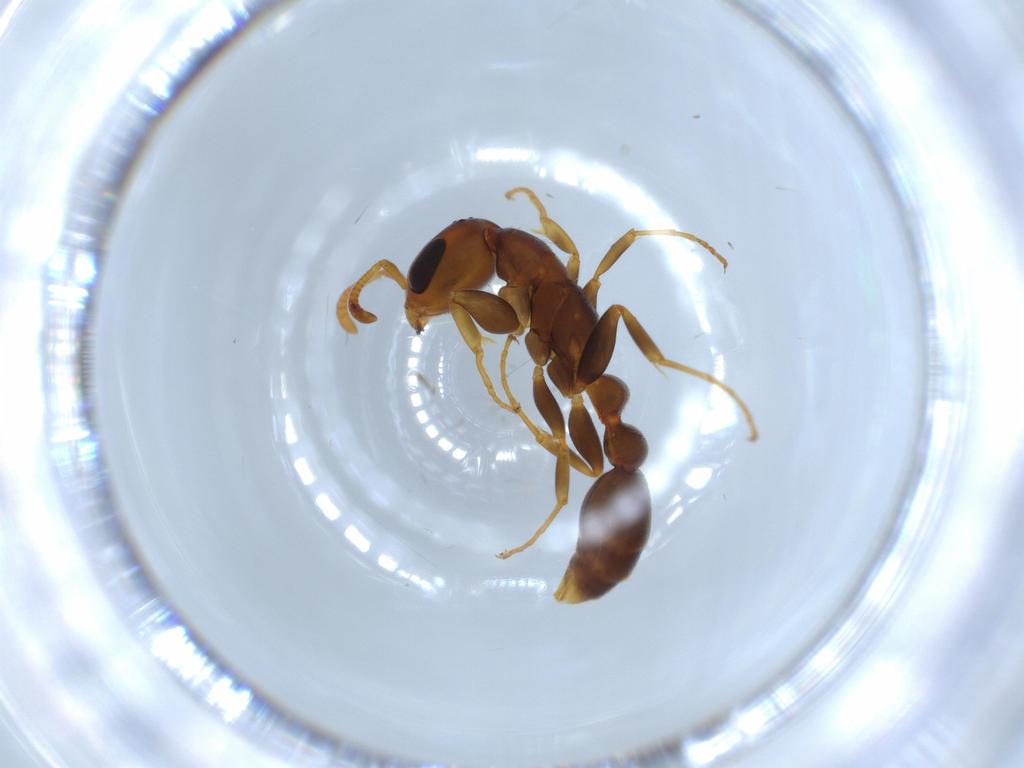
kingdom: Animalia
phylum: Arthropoda
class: Insecta
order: Hymenoptera
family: Formicidae
